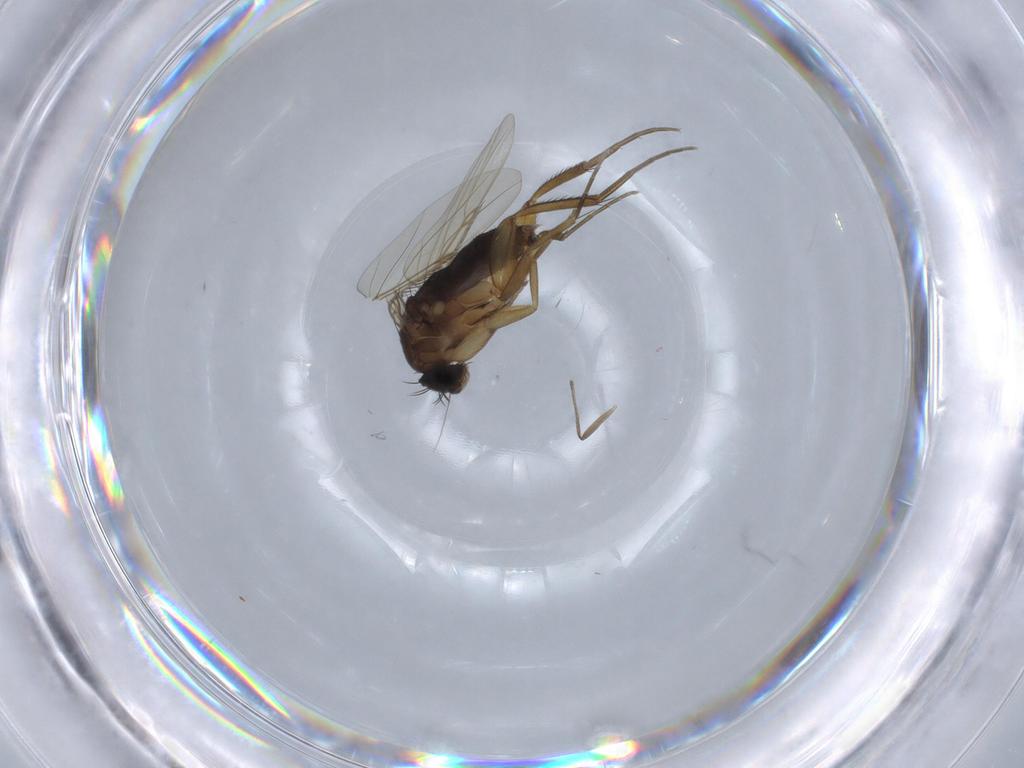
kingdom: Animalia
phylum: Arthropoda
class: Insecta
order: Diptera
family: Phoridae
